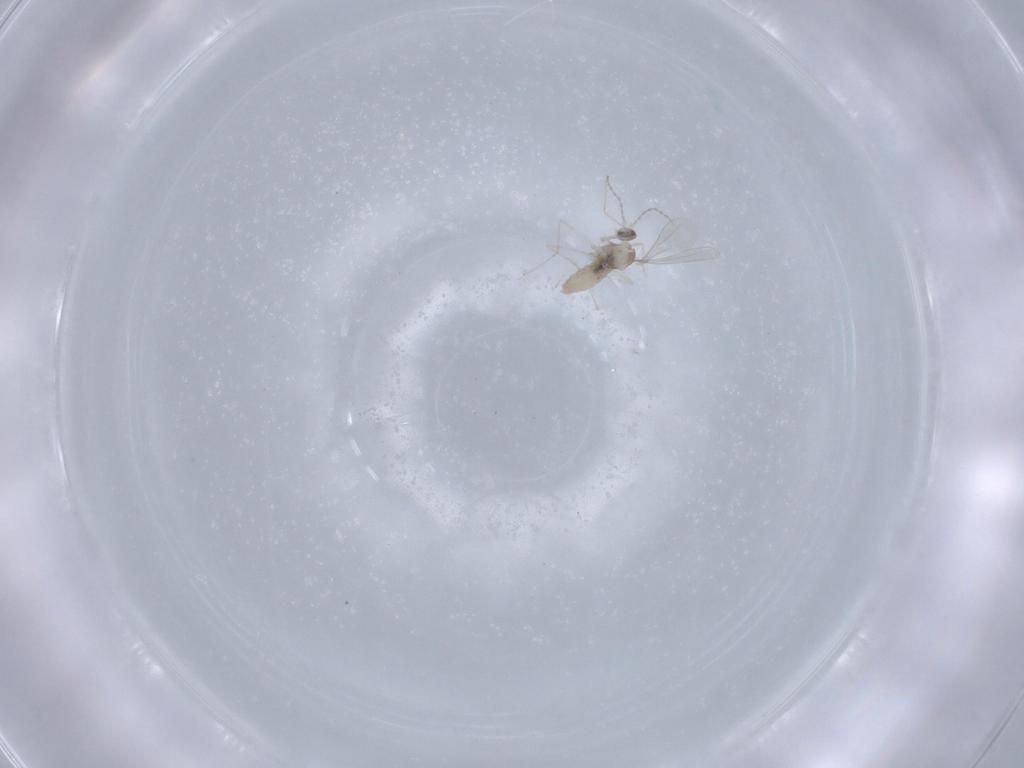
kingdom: Animalia
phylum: Arthropoda
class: Insecta
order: Diptera
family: Cecidomyiidae
